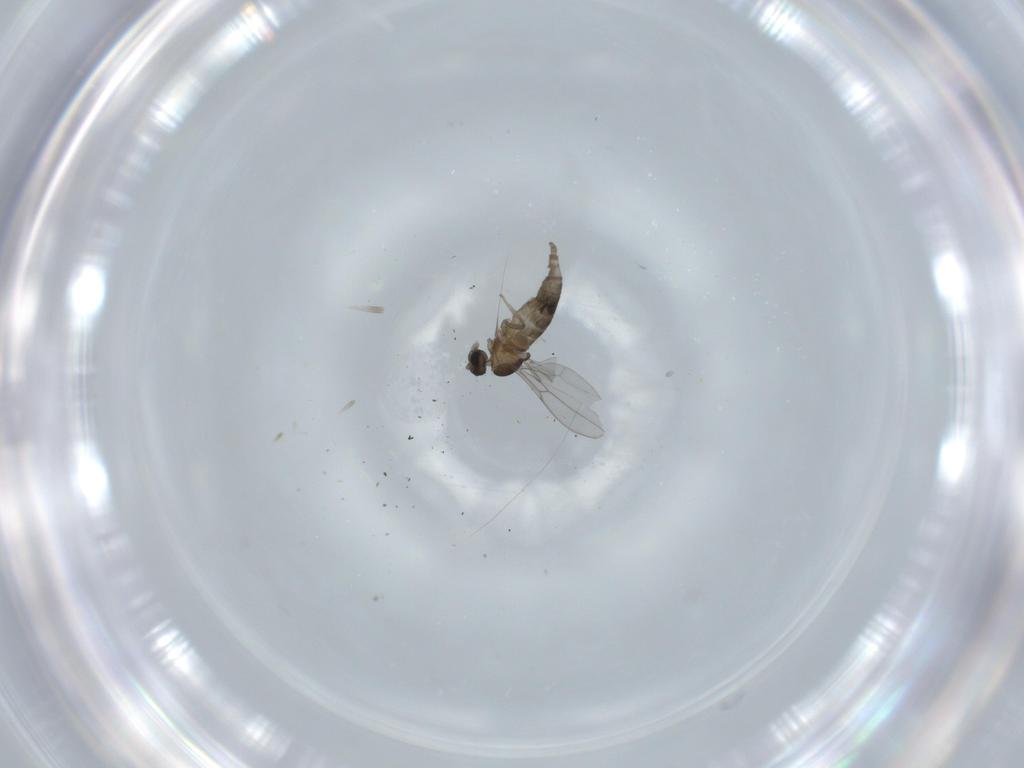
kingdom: Animalia
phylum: Arthropoda
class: Insecta
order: Diptera
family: Cecidomyiidae
